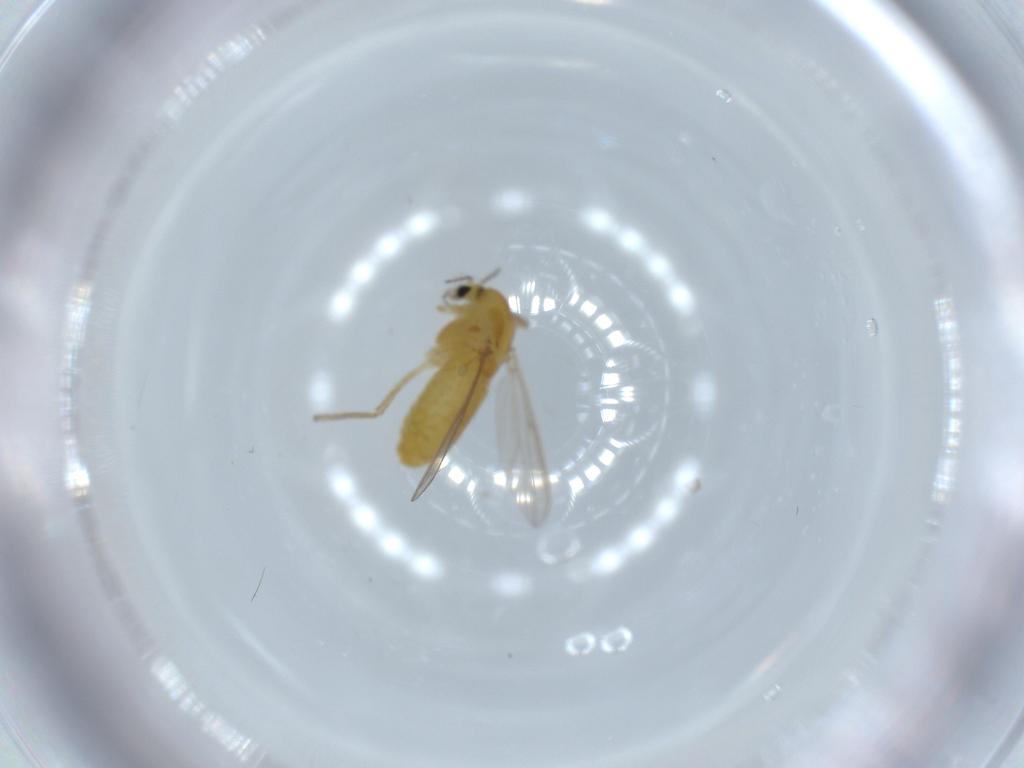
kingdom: Animalia
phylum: Arthropoda
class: Insecta
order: Diptera
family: Chironomidae
